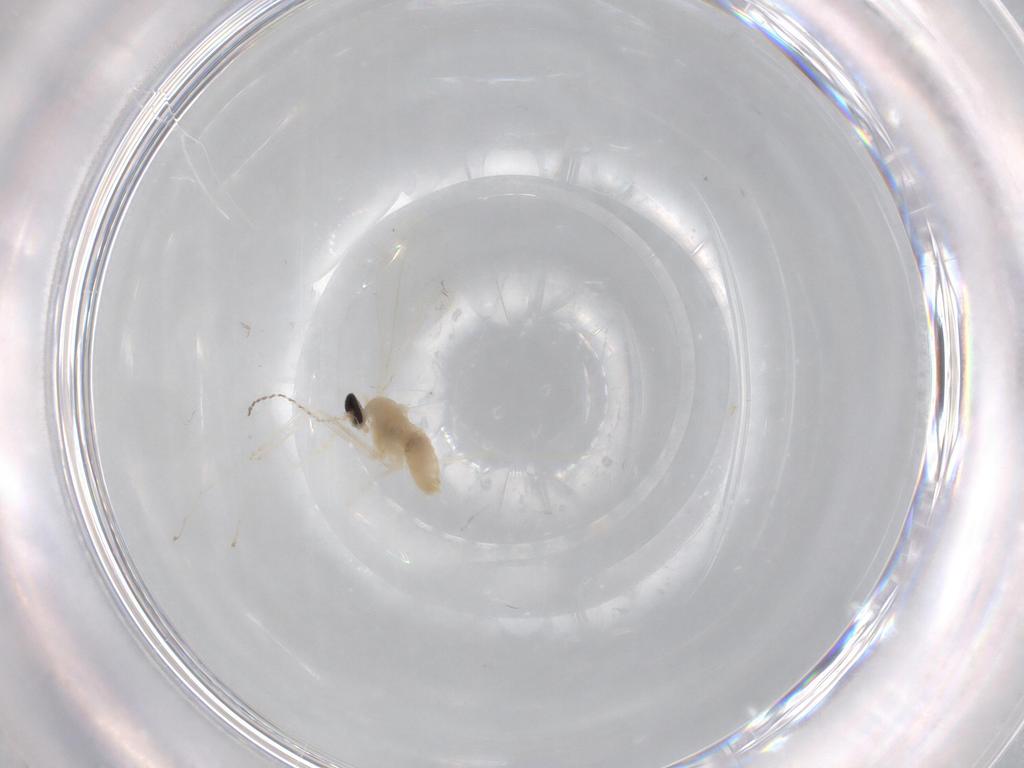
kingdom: Animalia
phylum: Arthropoda
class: Insecta
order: Diptera
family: Cecidomyiidae
